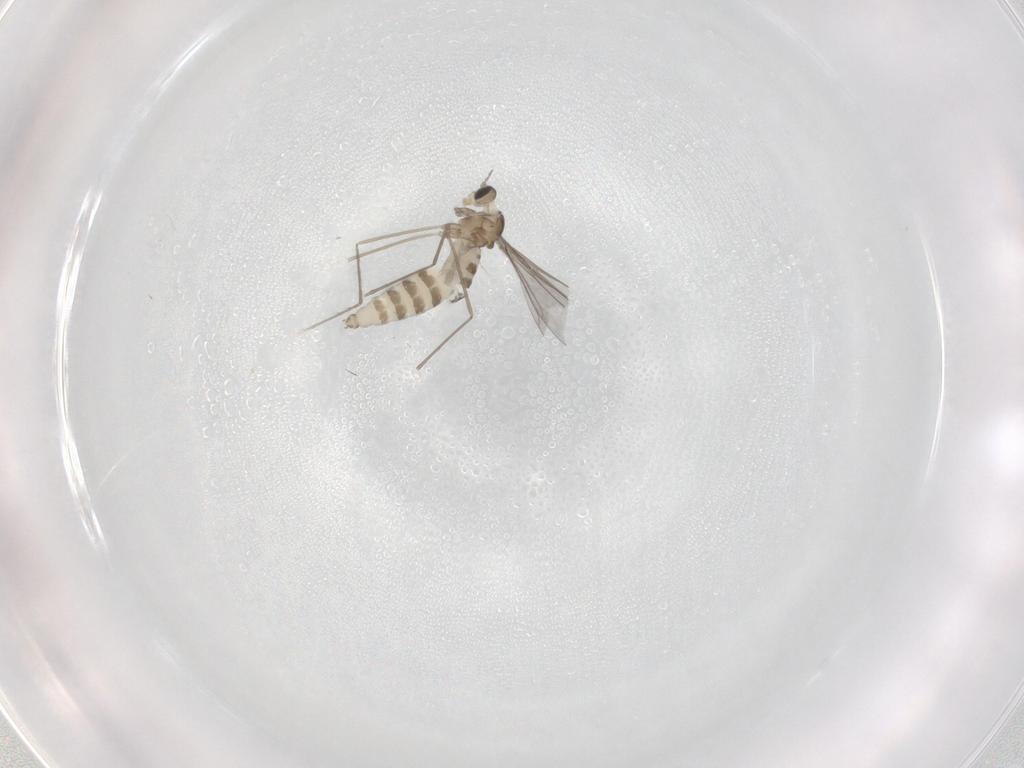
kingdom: Animalia
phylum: Arthropoda
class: Insecta
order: Diptera
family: Cecidomyiidae
